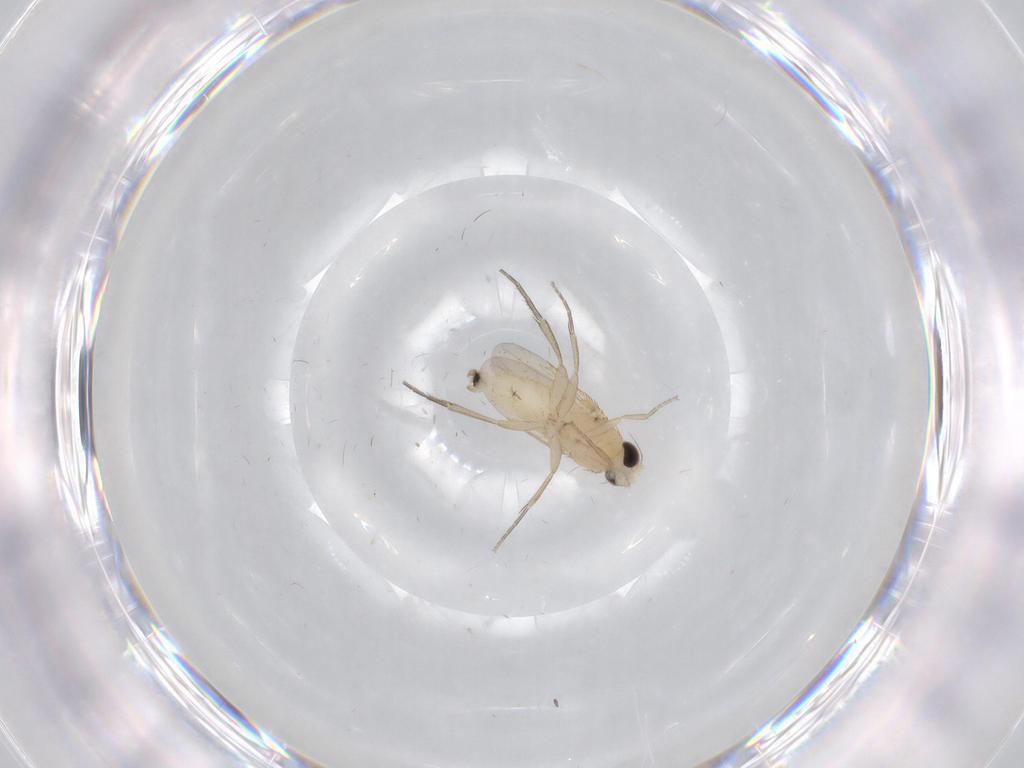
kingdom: Animalia
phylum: Arthropoda
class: Insecta
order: Diptera
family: Phoridae
